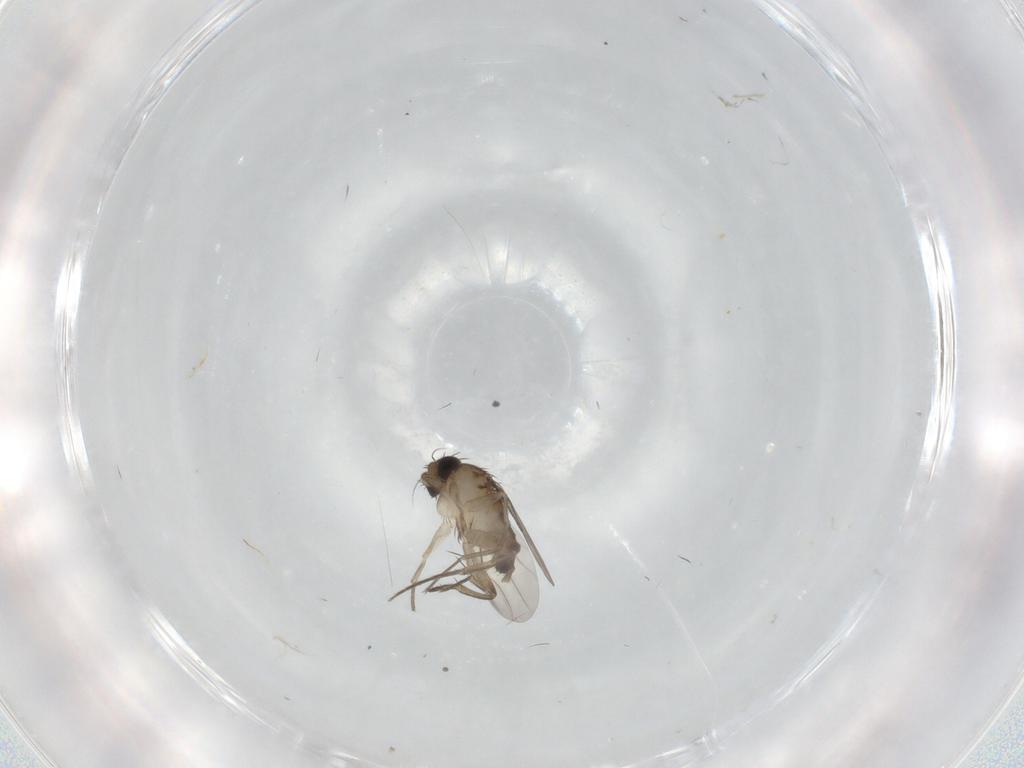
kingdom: Animalia
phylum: Arthropoda
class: Insecta
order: Diptera
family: Phoridae
